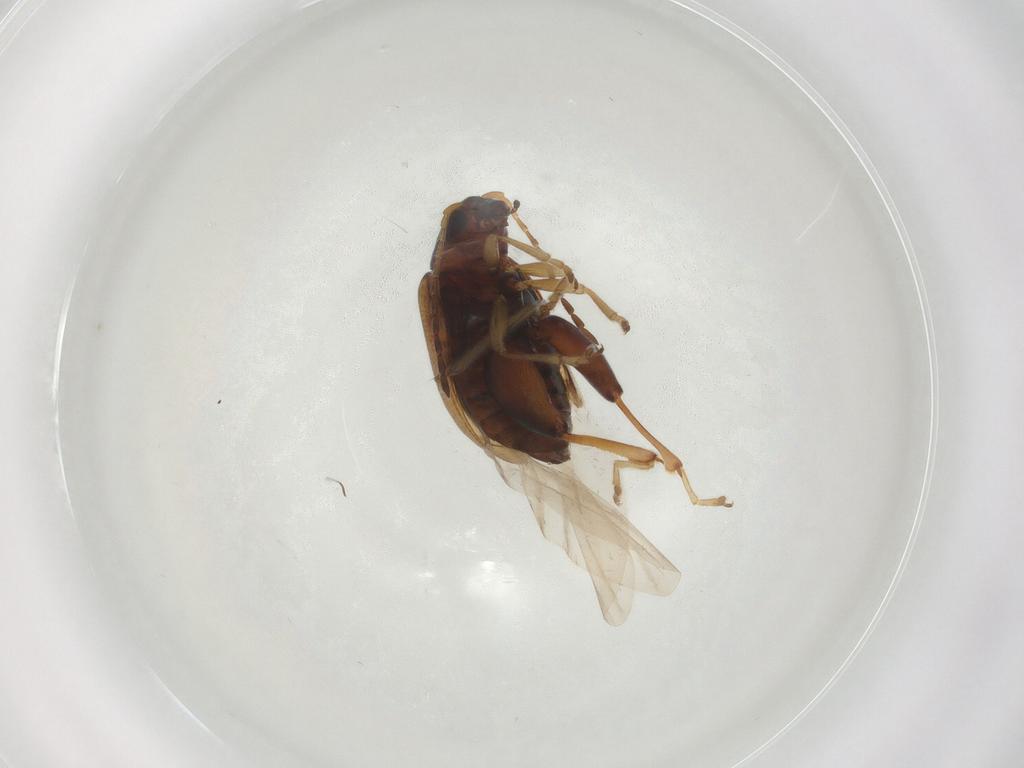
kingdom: Animalia
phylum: Arthropoda
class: Insecta
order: Coleoptera
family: Chrysomelidae
